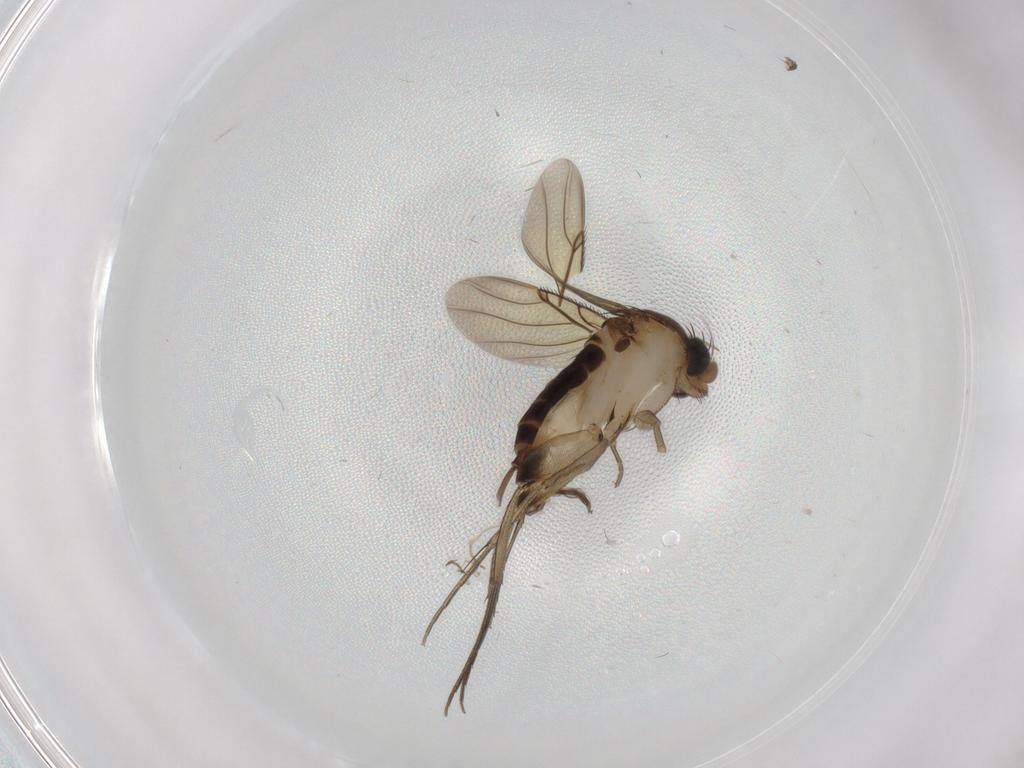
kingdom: Animalia
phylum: Arthropoda
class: Insecta
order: Diptera
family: Phoridae
